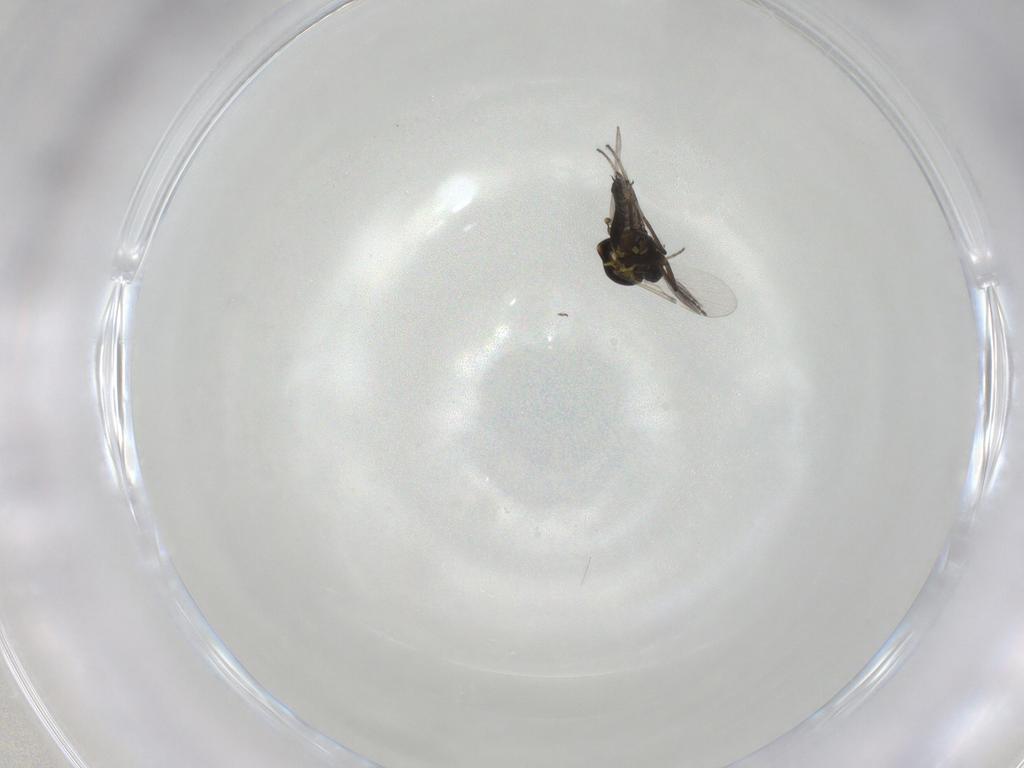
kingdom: Animalia
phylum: Arthropoda
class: Insecta
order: Diptera
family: Ceratopogonidae
